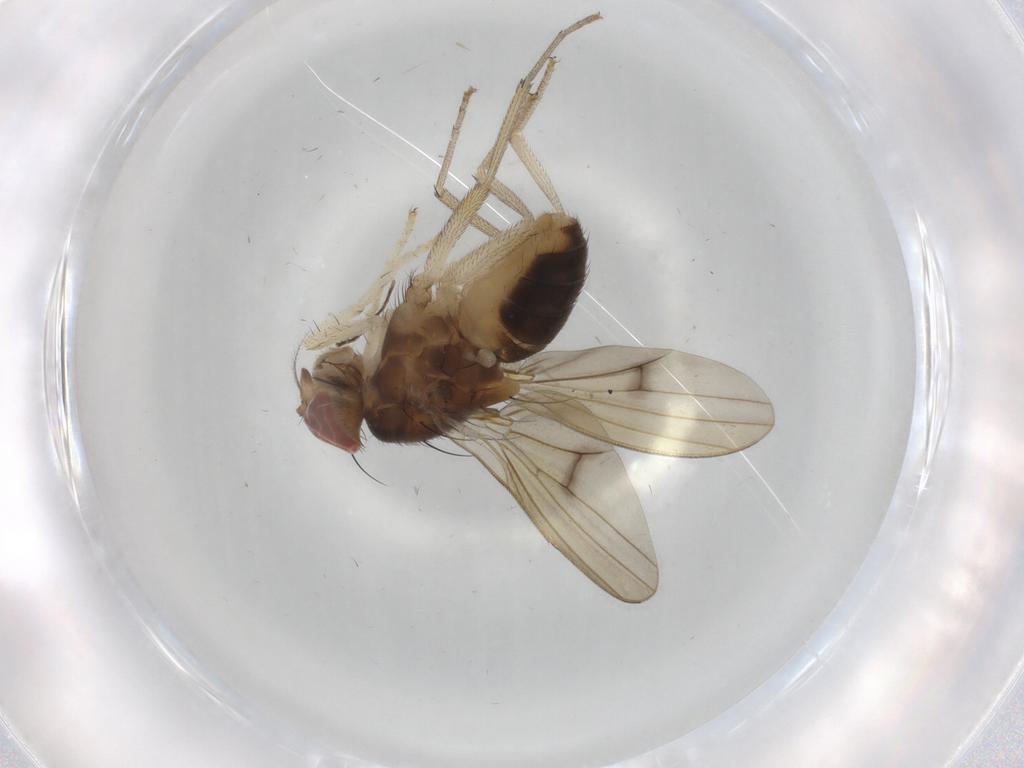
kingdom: Animalia
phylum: Arthropoda
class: Insecta
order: Diptera
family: Lauxaniidae
